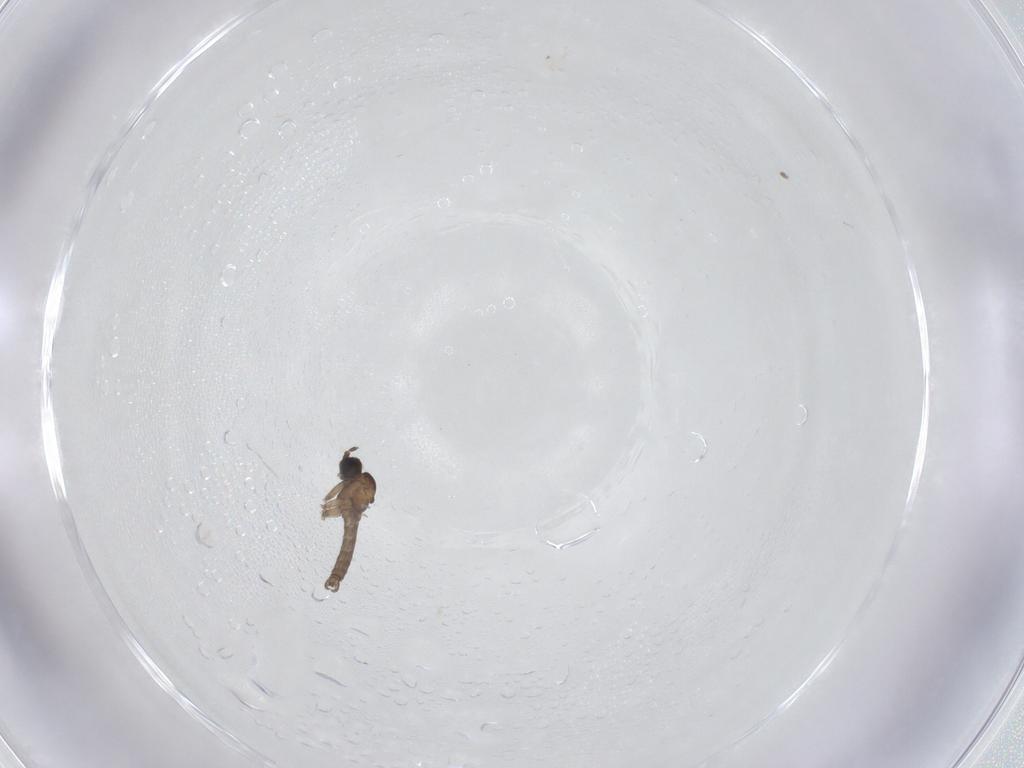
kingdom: Animalia
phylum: Arthropoda
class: Insecta
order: Diptera
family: Sciaridae
